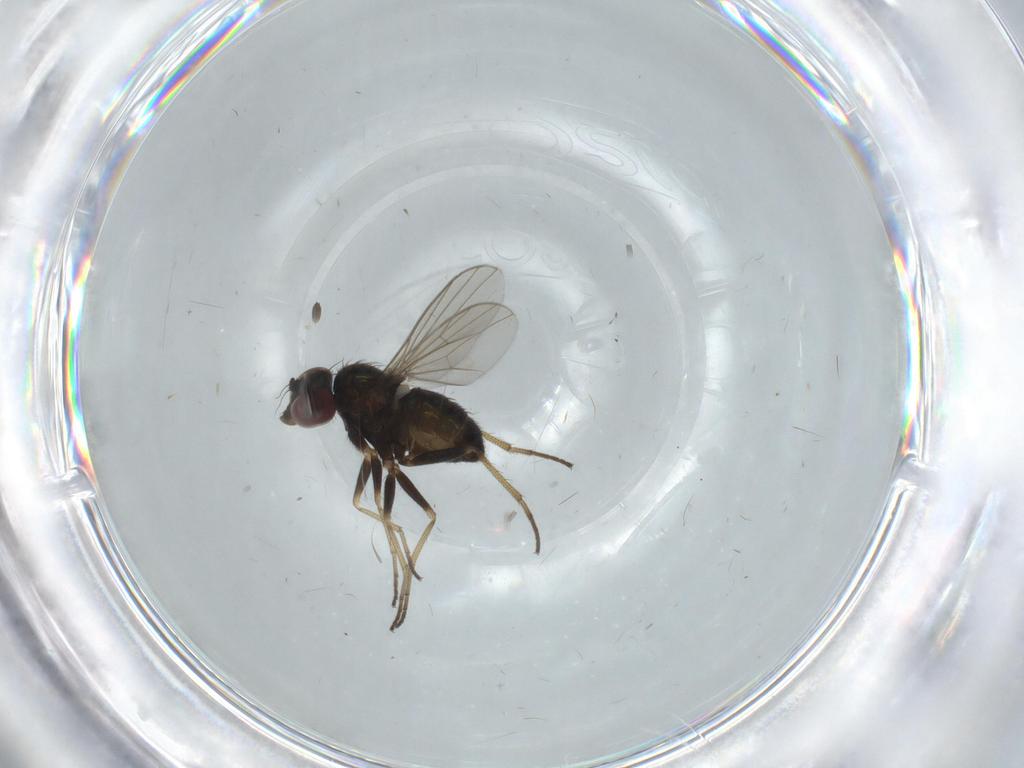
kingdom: Animalia
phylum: Arthropoda
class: Insecta
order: Diptera
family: Dolichopodidae
